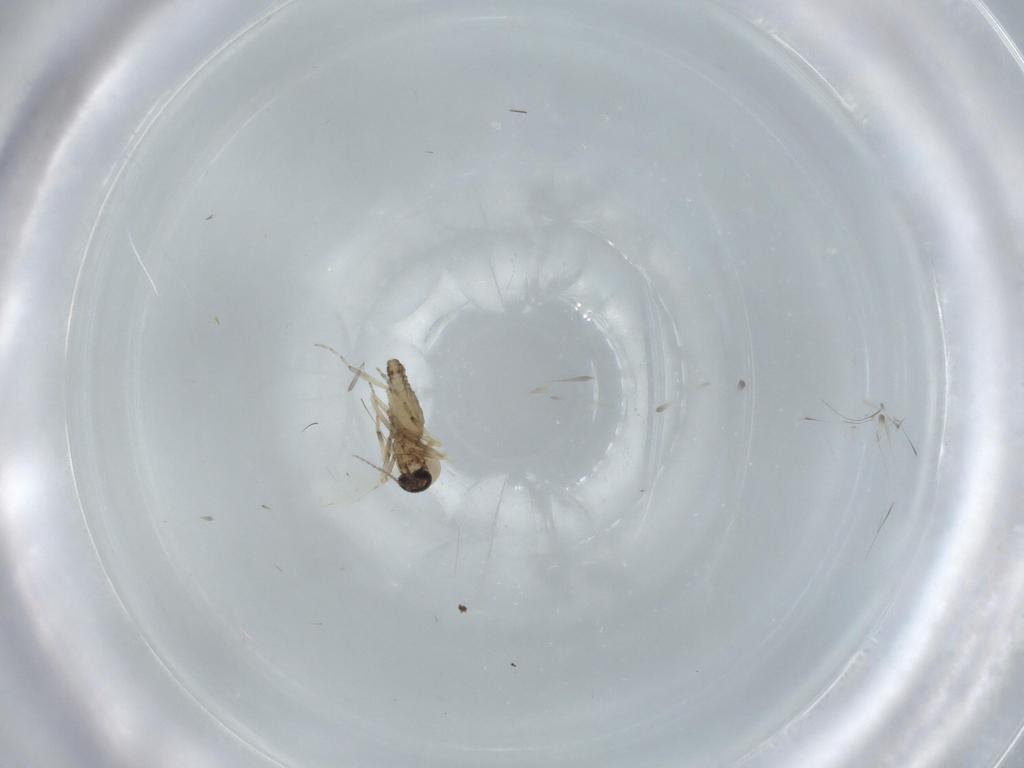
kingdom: Animalia
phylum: Arthropoda
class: Insecta
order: Diptera
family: Ceratopogonidae
